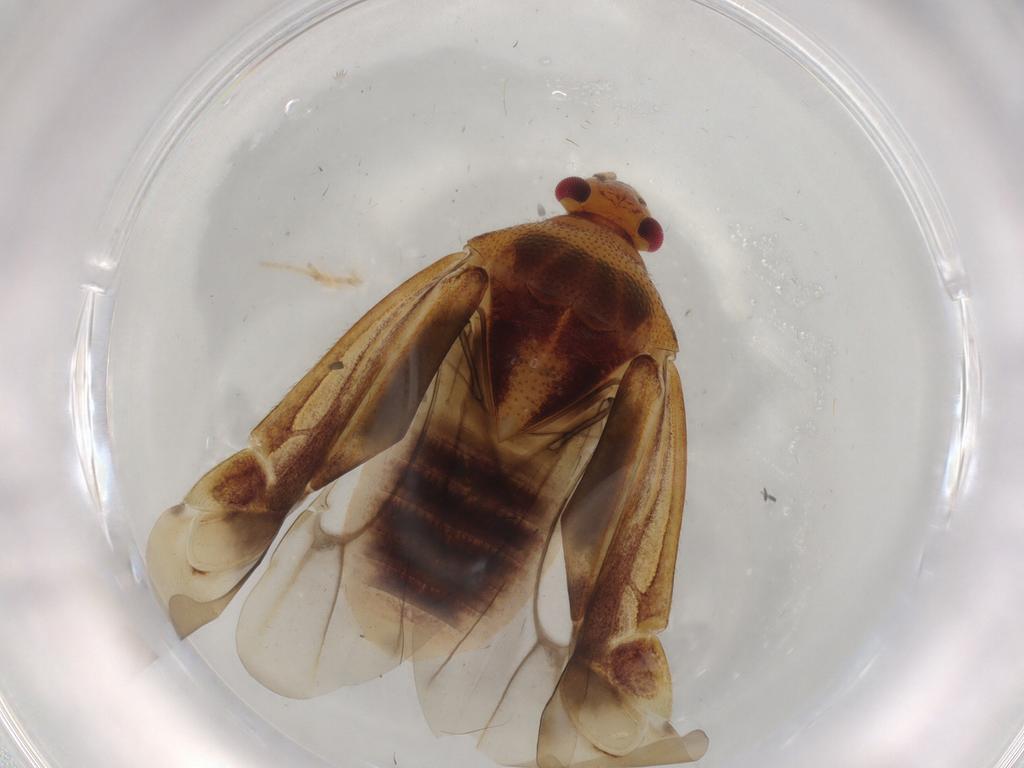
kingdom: Animalia
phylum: Arthropoda
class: Insecta
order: Hemiptera
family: Miridae
